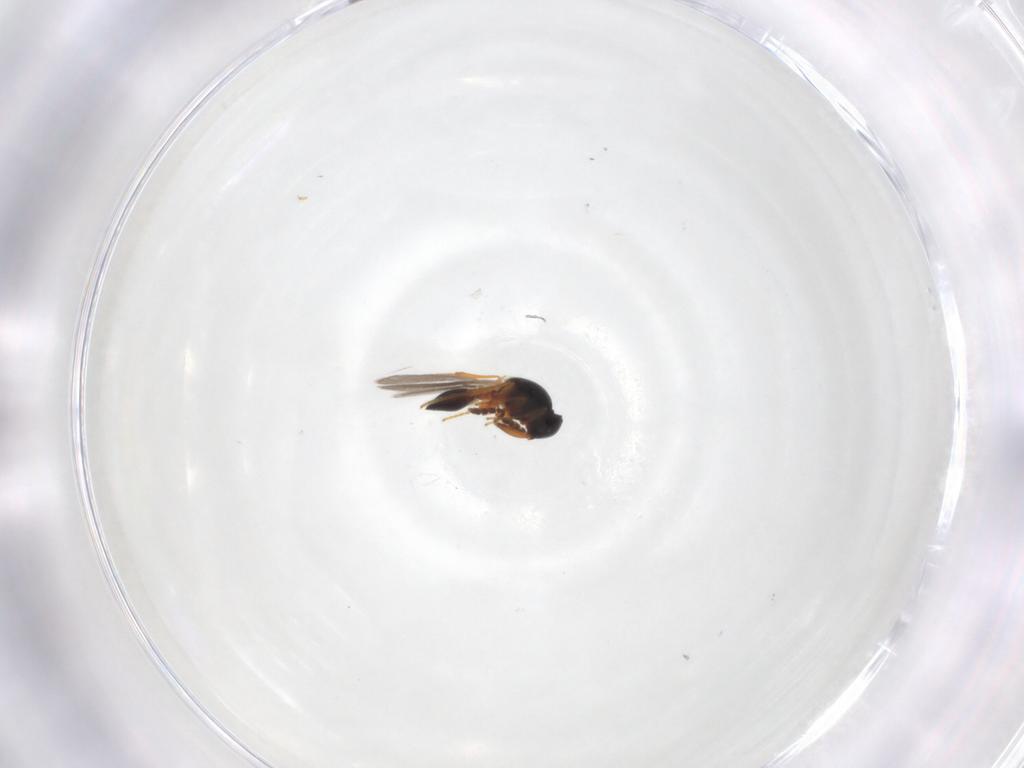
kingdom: Animalia
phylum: Arthropoda
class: Insecta
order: Hymenoptera
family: Platygastridae
